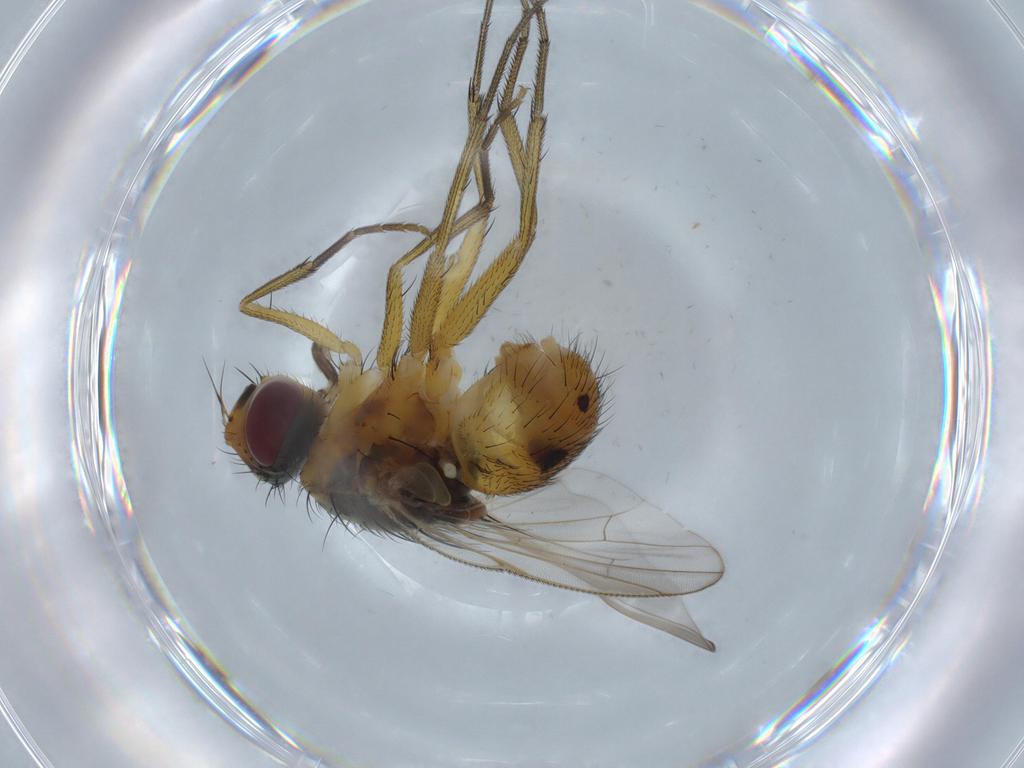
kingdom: Animalia
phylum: Arthropoda
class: Insecta
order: Diptera
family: Muscidae
